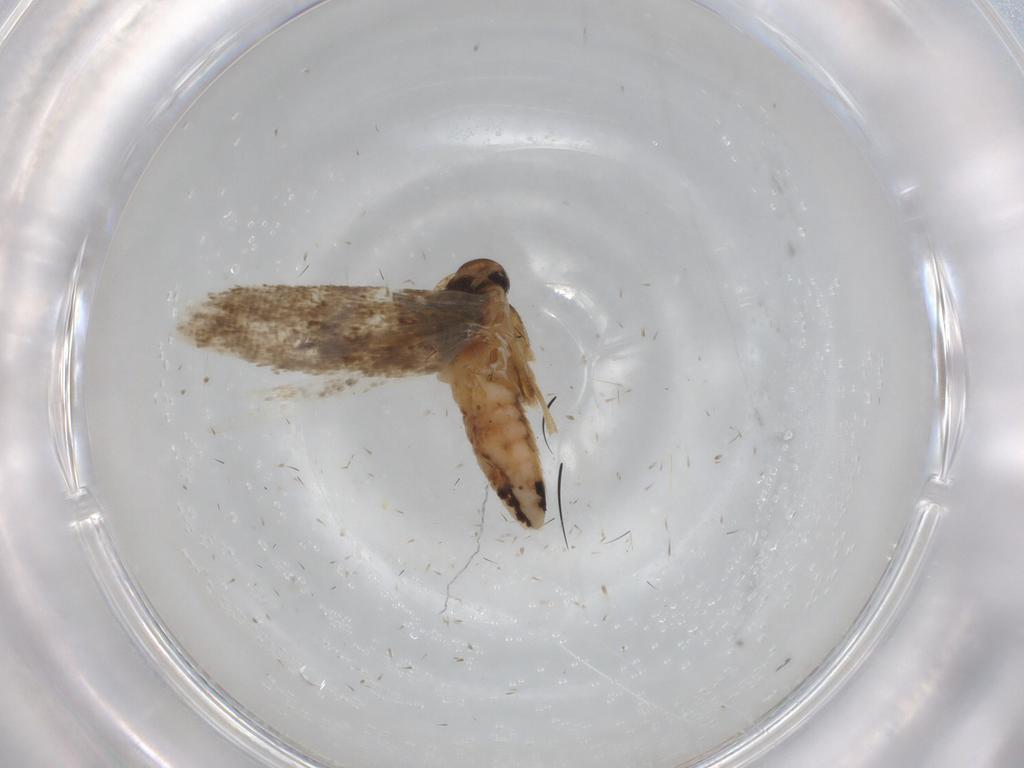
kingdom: Animalia
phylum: Arthropoda
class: Insecta
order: Lepidoptera
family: Cosmopterigidae
